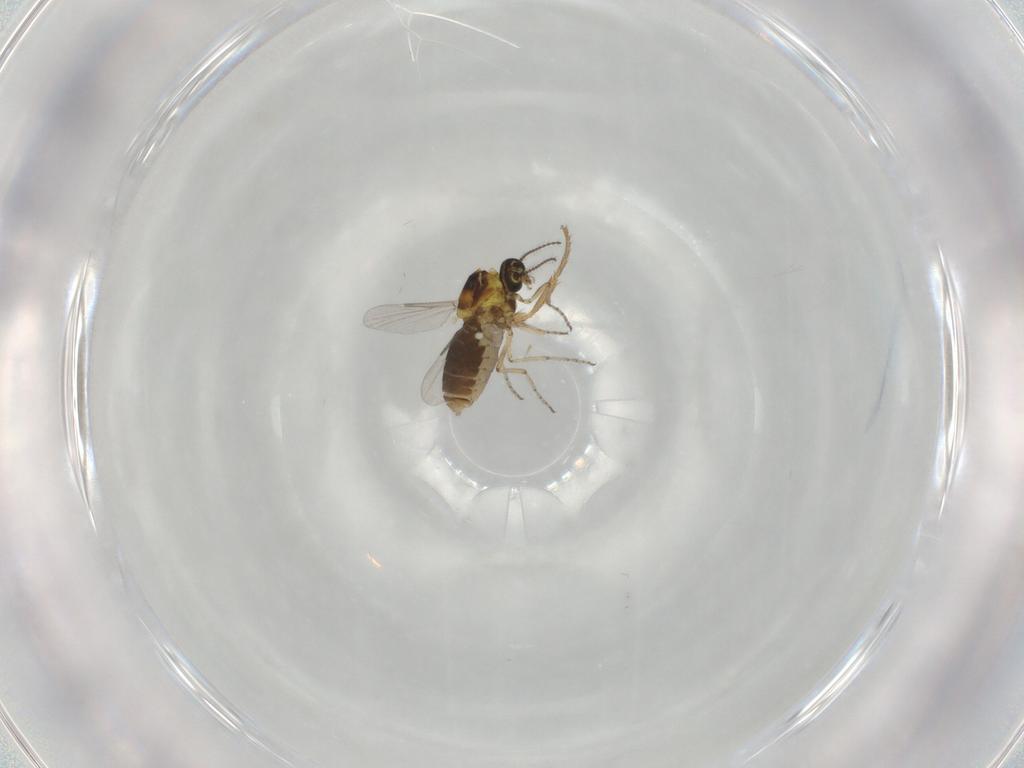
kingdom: Animalia
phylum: Arthropoda
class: Insecta
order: Diptera
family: Ceratopogonidae
